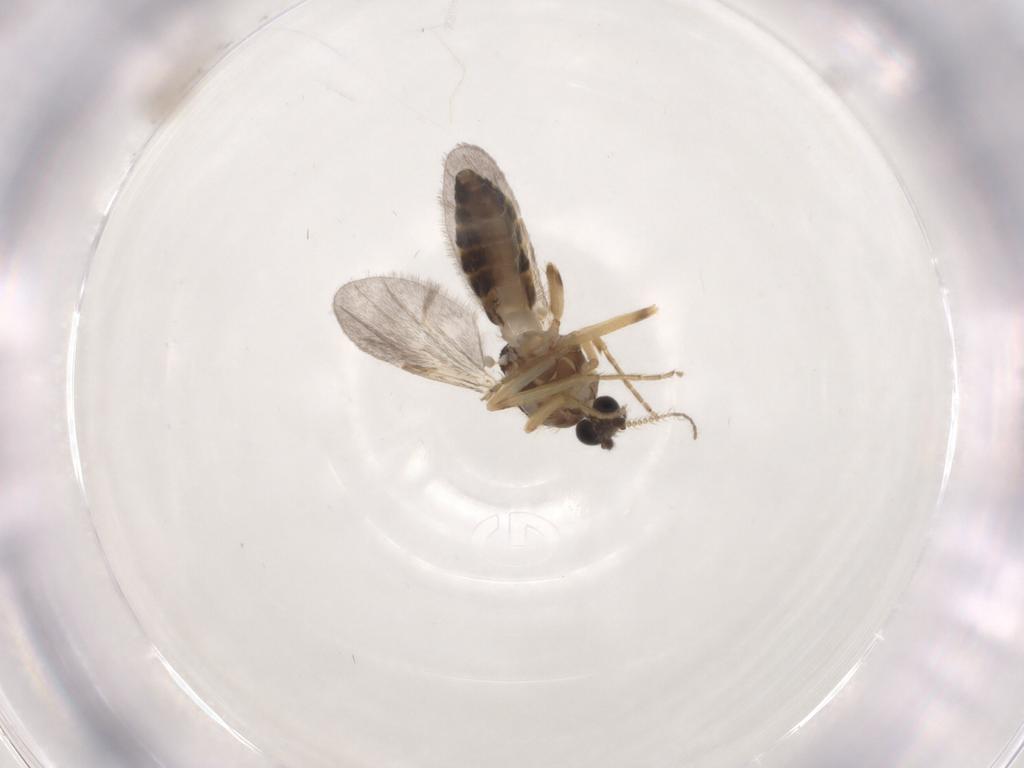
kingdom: Animalia
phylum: Arthropoda
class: Insecta
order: Diptera
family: Ceratopogonidae
